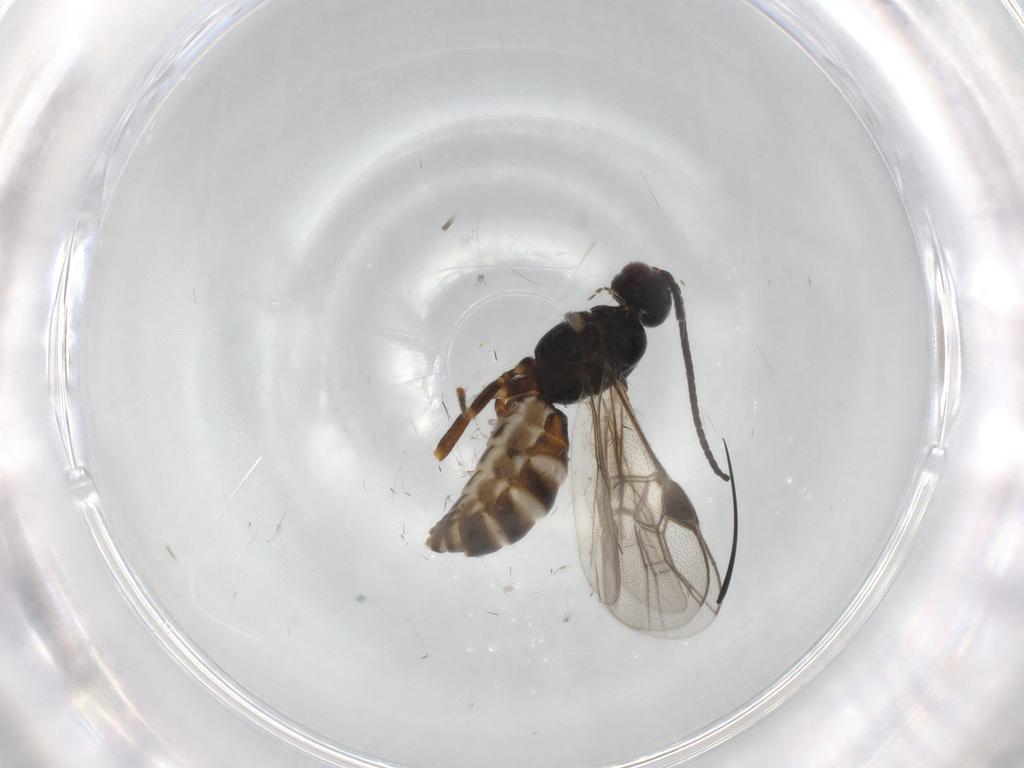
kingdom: Animalia
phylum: Arthropoda
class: Insecta
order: Hymenoptera
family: Braconidae
